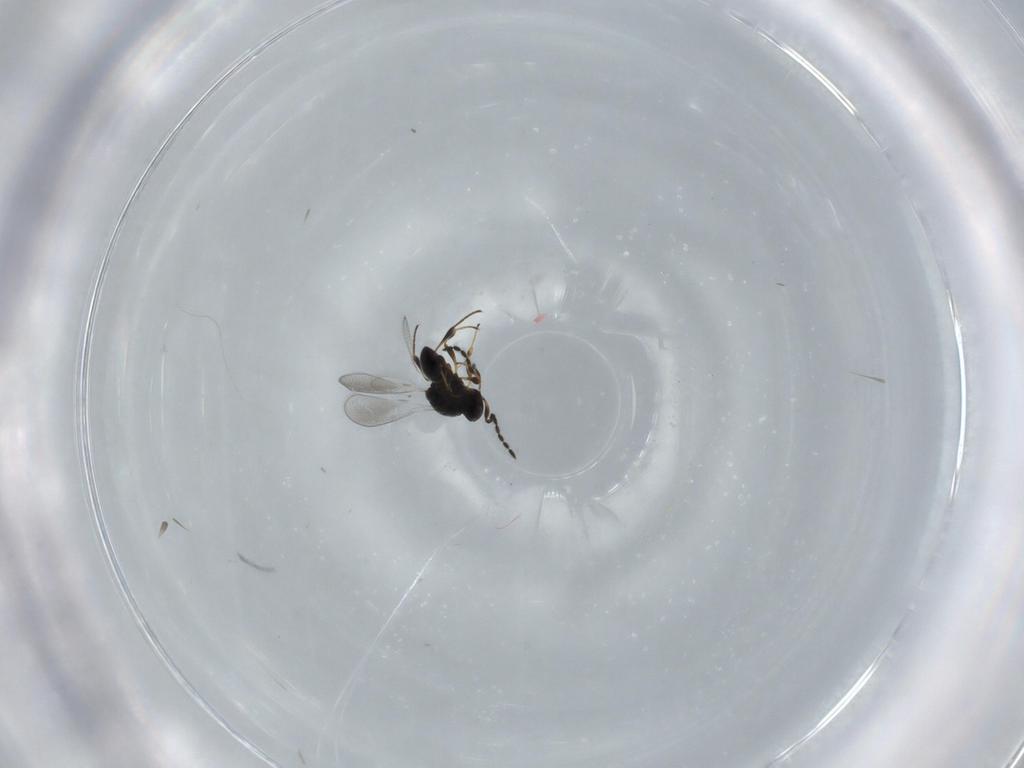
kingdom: Animalia
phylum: Arthropoda
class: Insecta
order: Hymenoptera
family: Platygastridae
